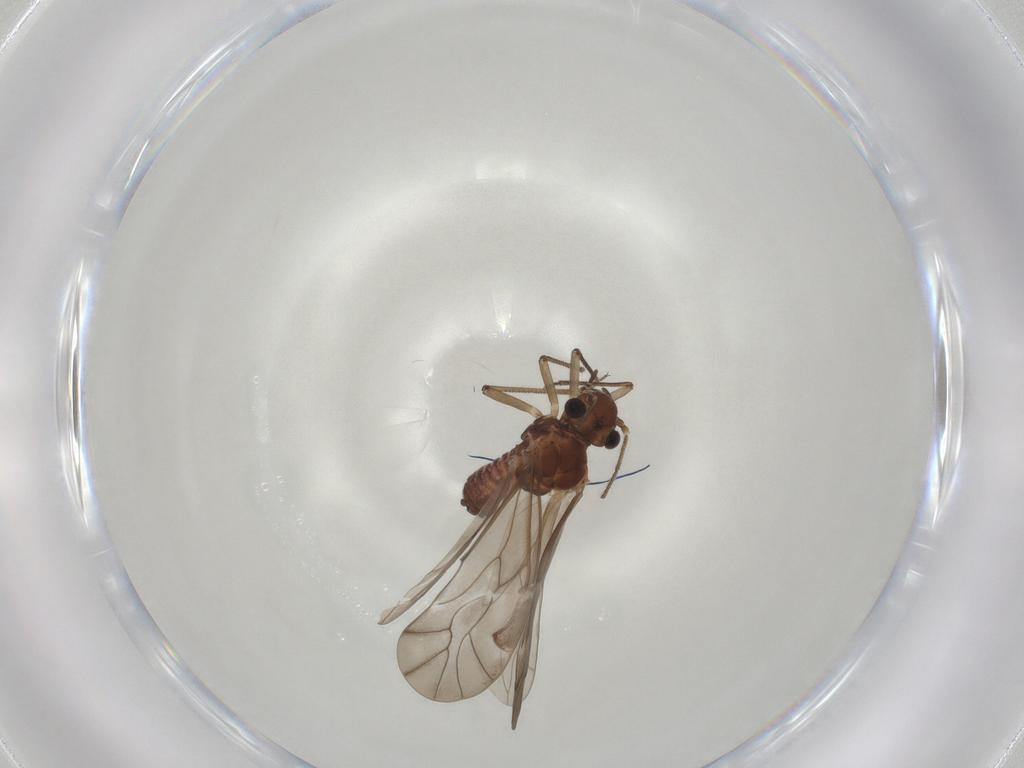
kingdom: Animalia
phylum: Arthropoda
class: Insecta
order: Psocodea
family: Peripsocidae
